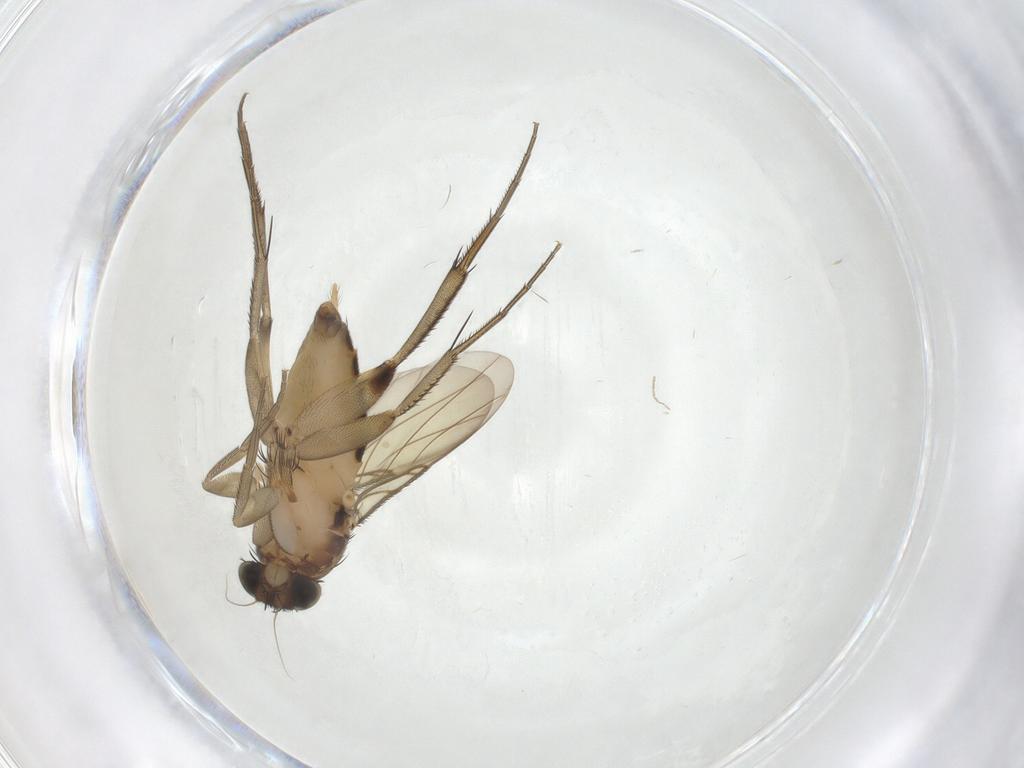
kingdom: Animalia
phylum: Arthropoda
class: Insecta
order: Diptera
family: Phoridae
